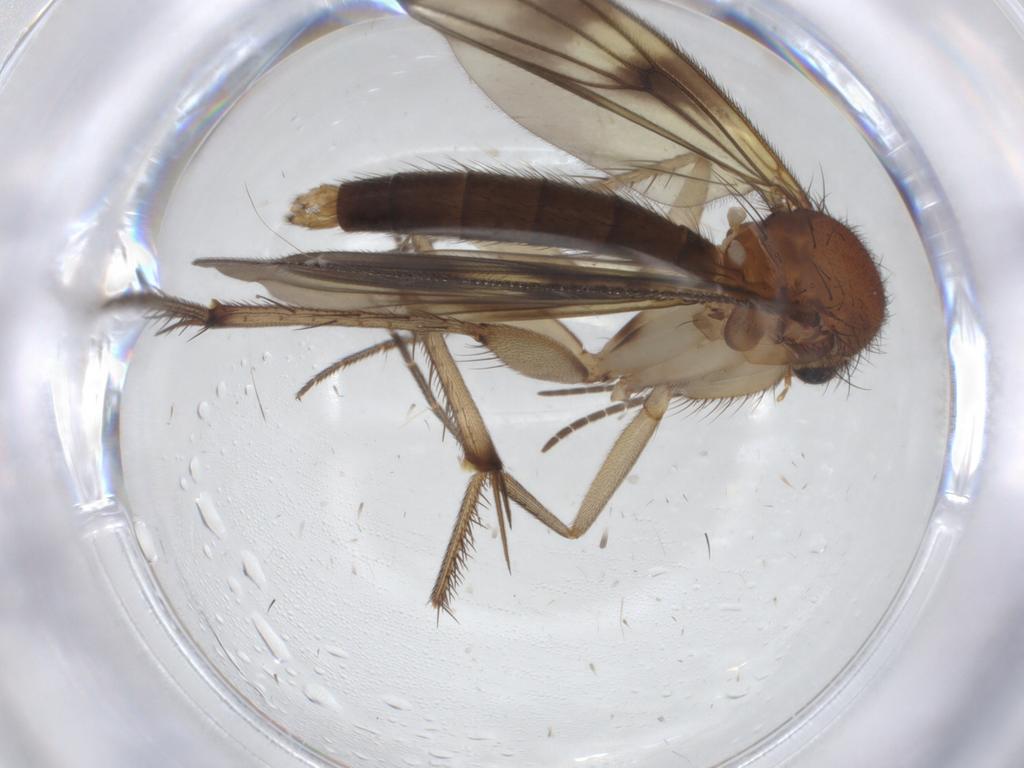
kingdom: Animalia
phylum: Arthropoda
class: Insecta
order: Diptera
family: Mycetophilidae
